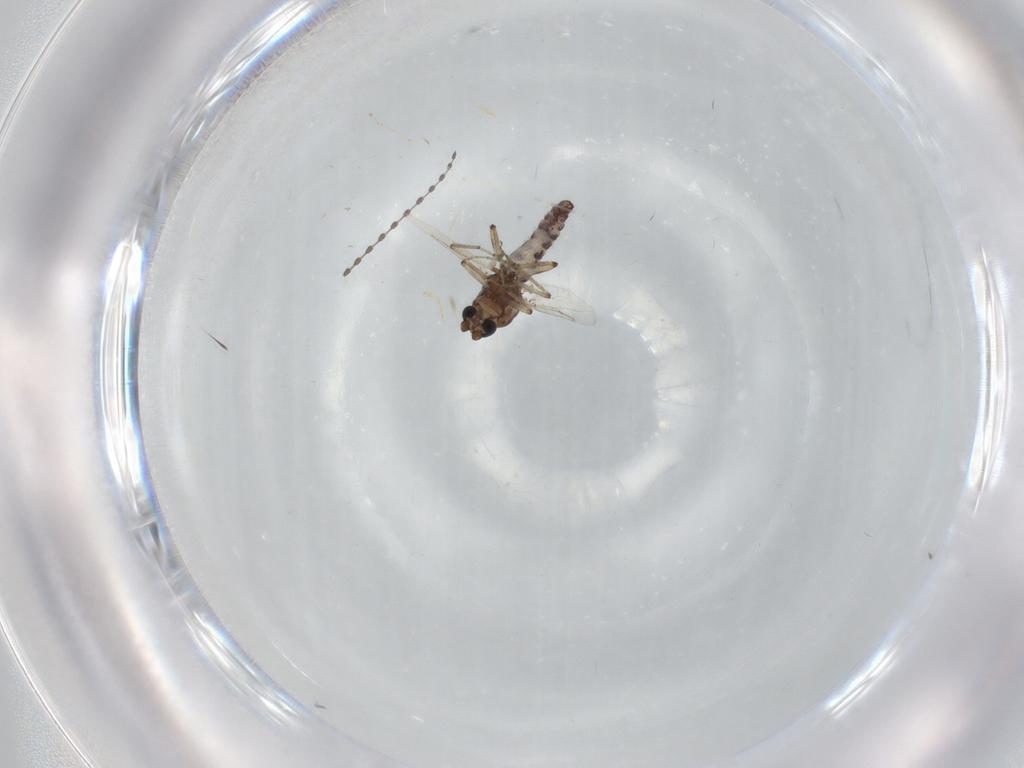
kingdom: Animalia
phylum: Arthropoda
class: Insecta
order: Diptera
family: Ceratopogonidae
